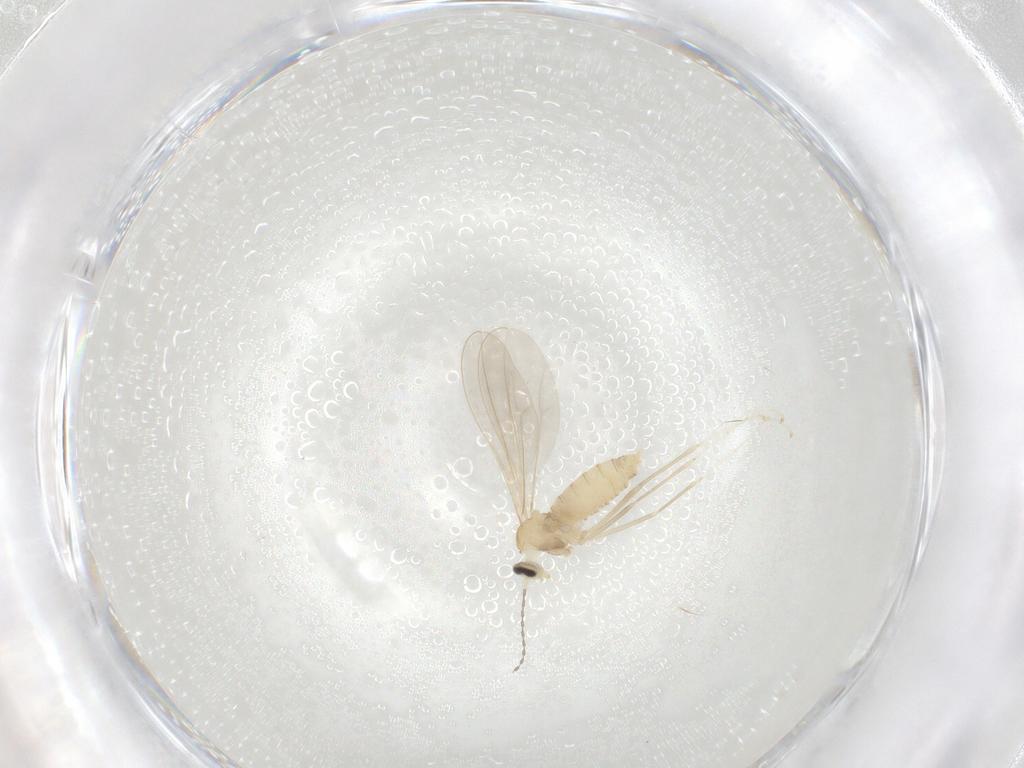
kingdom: Animalia
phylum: Arthropoda
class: Insecta
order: Diptera
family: Cecidomyiidae
